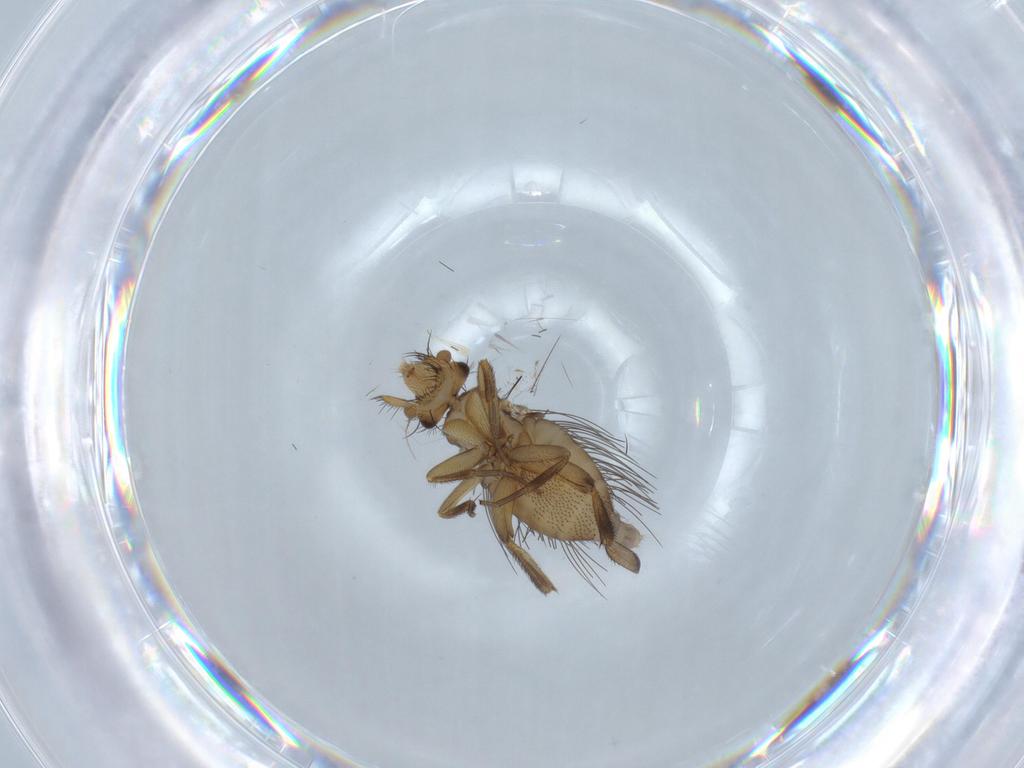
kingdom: Animalia
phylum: Arthropoda
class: Insecta
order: Diptera
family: Phoridae
